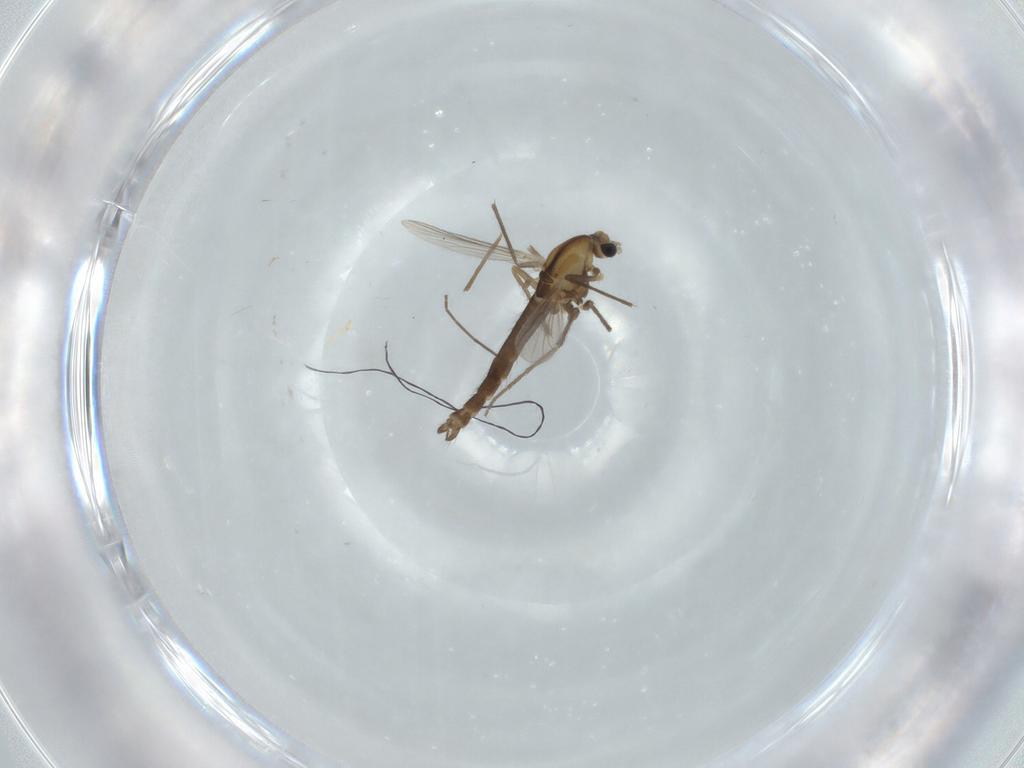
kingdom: Animalia
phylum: Arthropoda
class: Insecta
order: Diptera
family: Chironomidae
